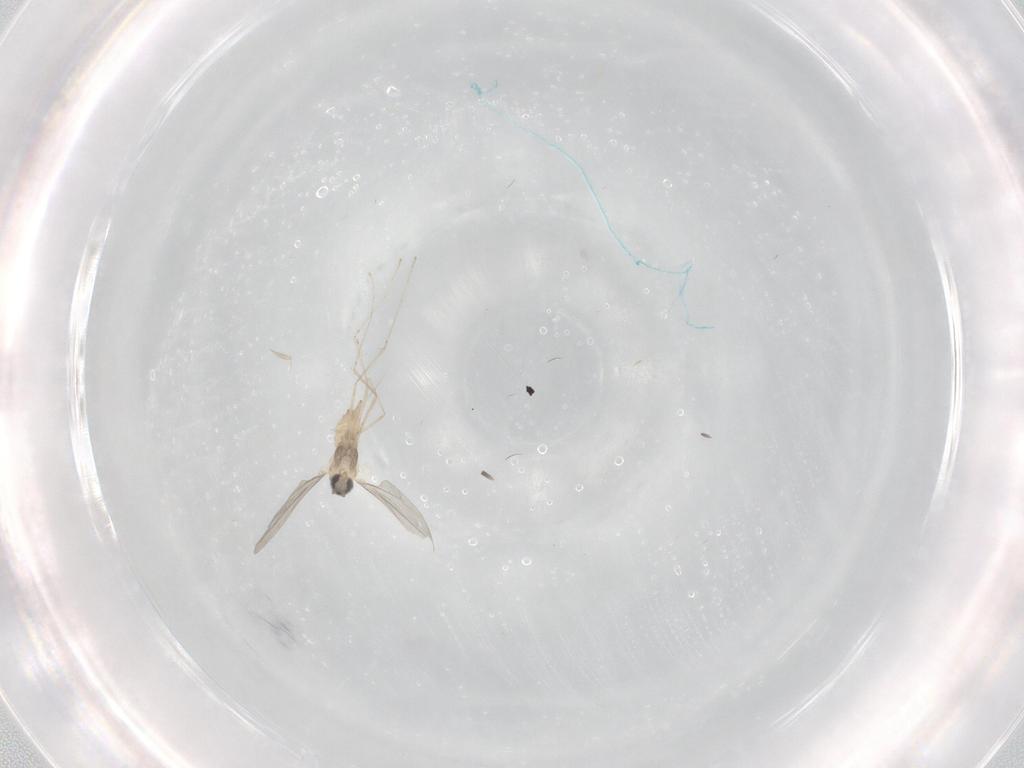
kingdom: Animalia
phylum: Arthropoda
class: Insecta
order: Diptera
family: Cecidomyiidae
